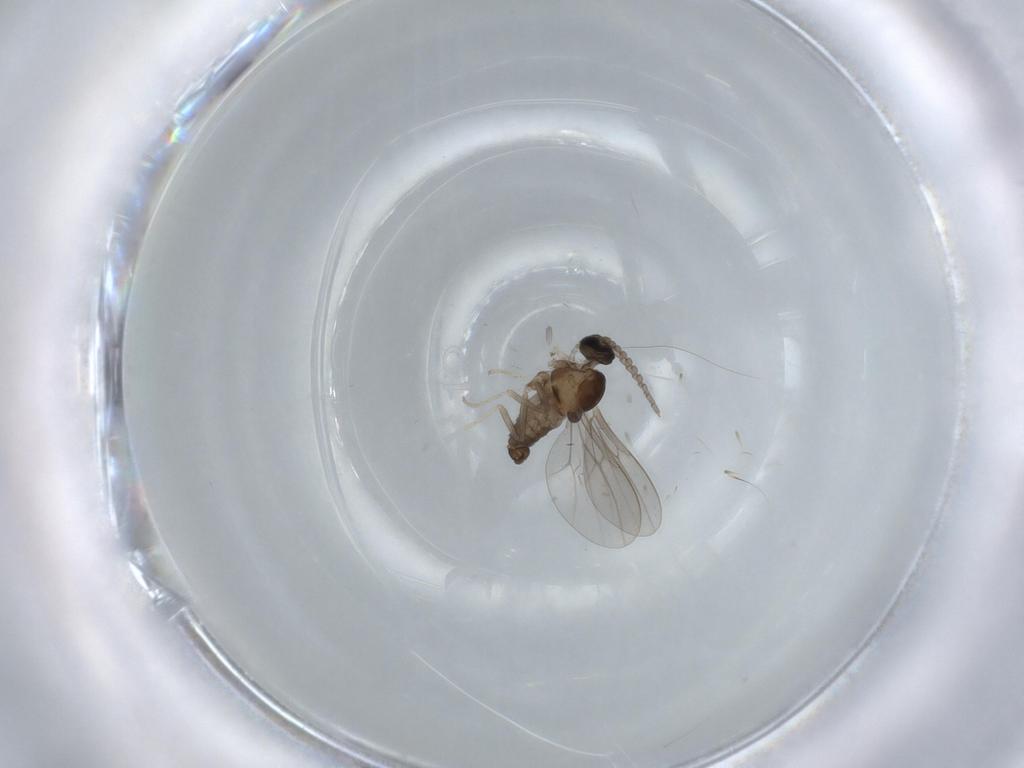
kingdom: Animalia
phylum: Arthropoda
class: Insecta
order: Diptera
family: Cecidomyiidae
